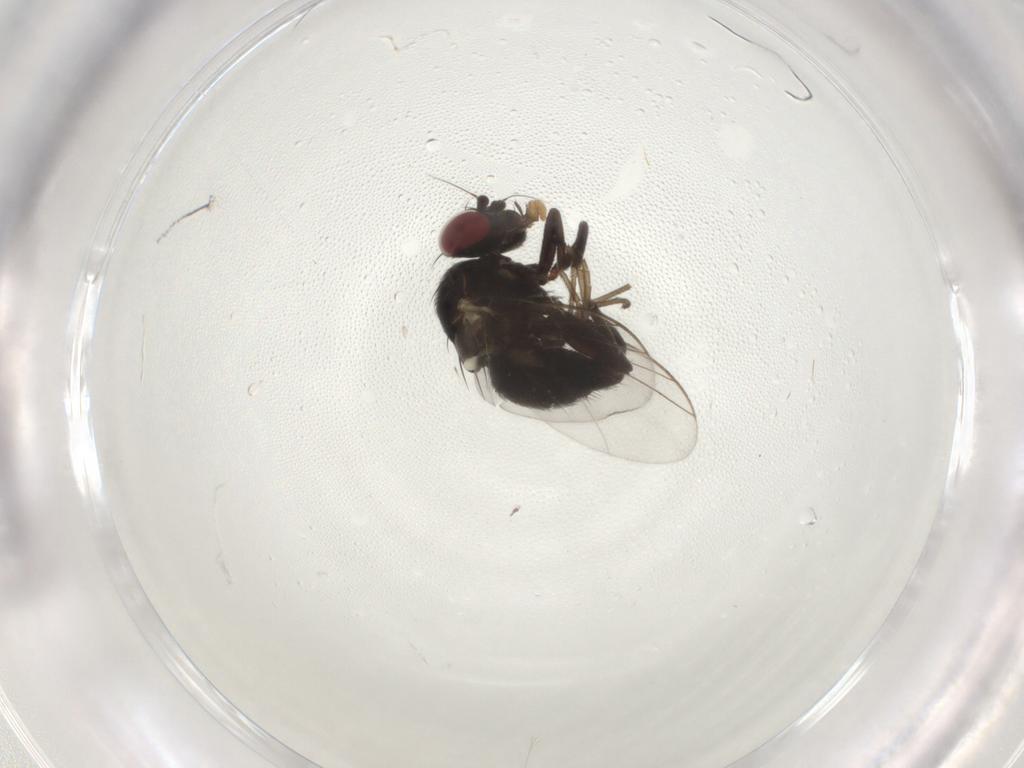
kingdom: Animalia
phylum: Arthropoda
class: Insecta
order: Diptera
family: Agromyzidae
